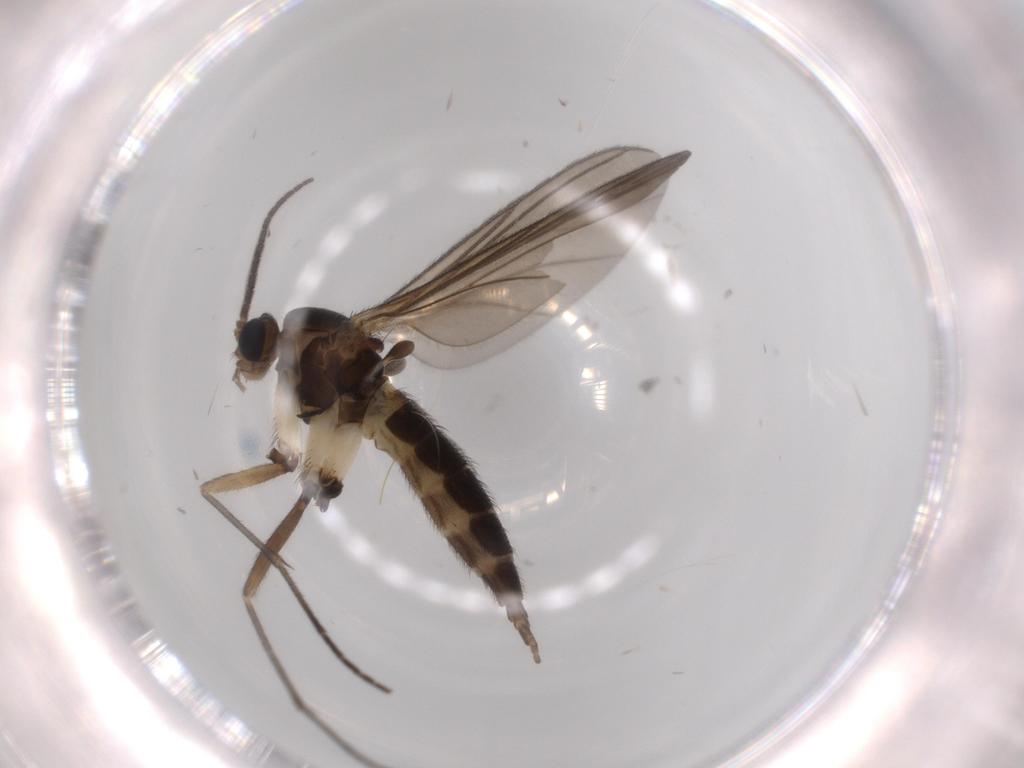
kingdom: Animalia
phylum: Arthropoda
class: Insecta
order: Diptera
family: Sciaridae
